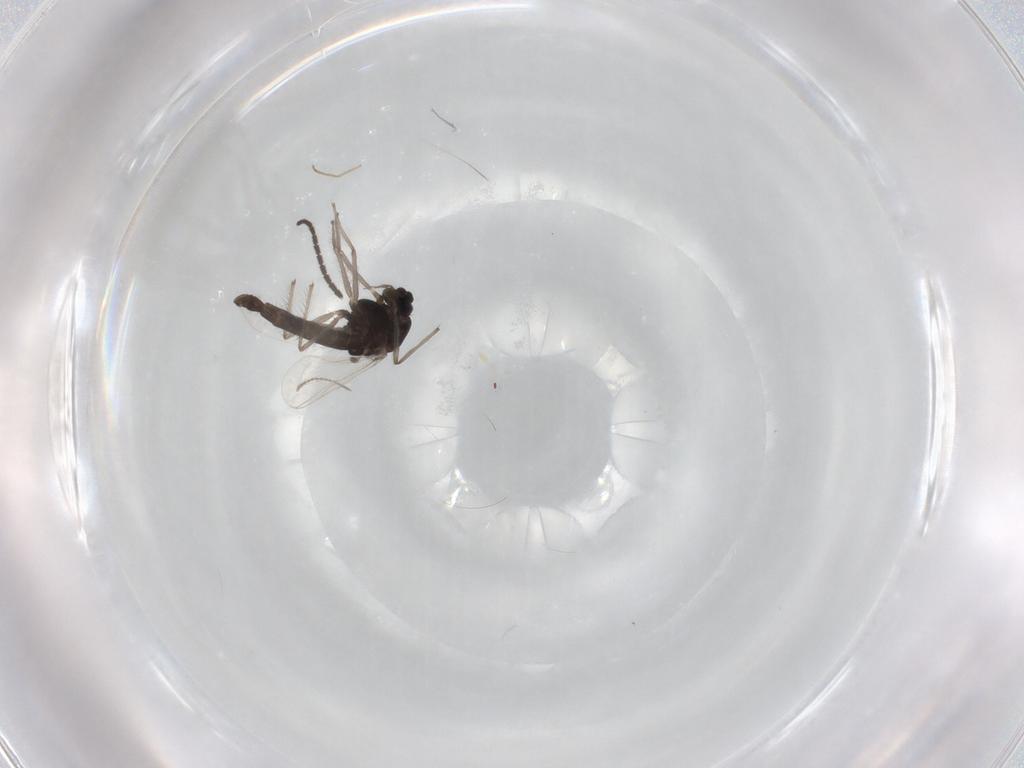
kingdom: Animalia
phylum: Arthropoda
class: Insecta
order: Diptera
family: Chironomidae
